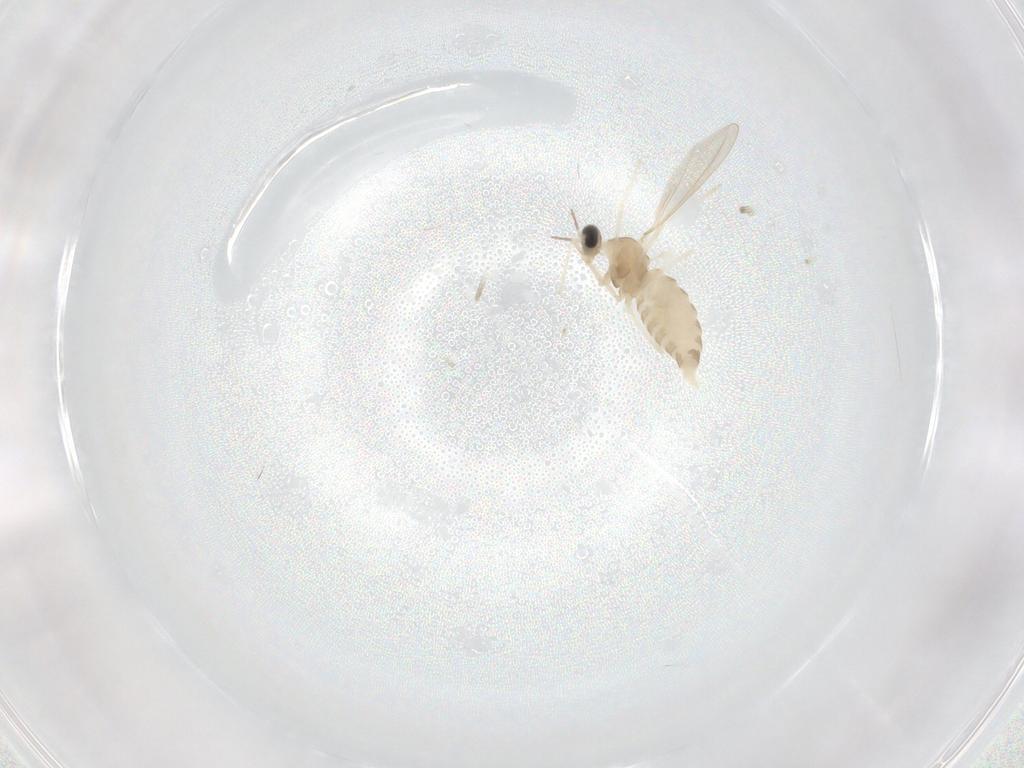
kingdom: Animalia
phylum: Arthropoda
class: Insecta
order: Diptera
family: Cecidomyiidae
